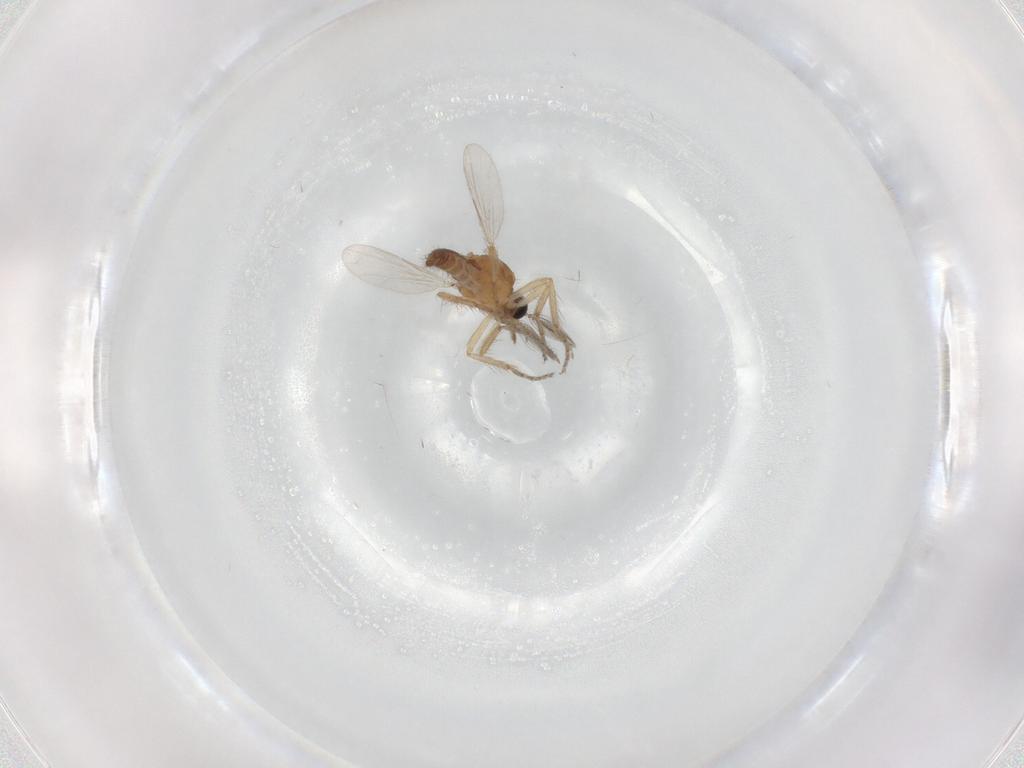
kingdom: Animalia
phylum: Arthropoda
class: Insecta
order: Diptera
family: Ceratopogonidae
